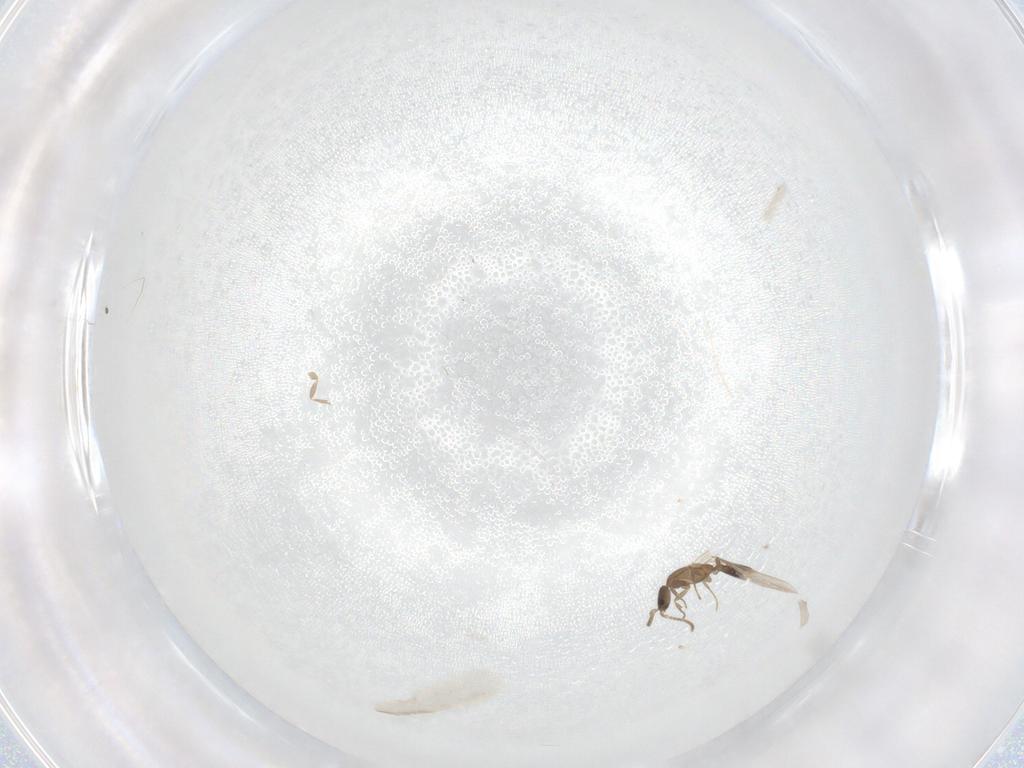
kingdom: Animalia
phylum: Arthropoda
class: Insecta
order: Hymenoptera
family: Formicidae
